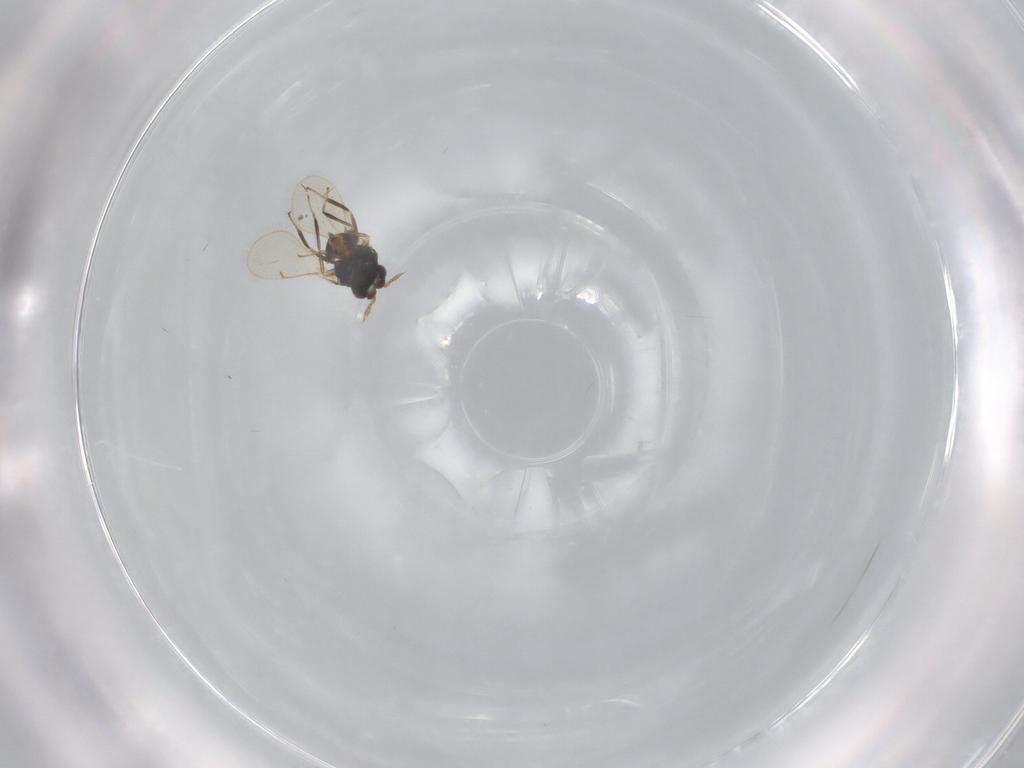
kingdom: Animalia
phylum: Arthropoda
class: Insecta
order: Hymenoptera
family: Eurytomidae
